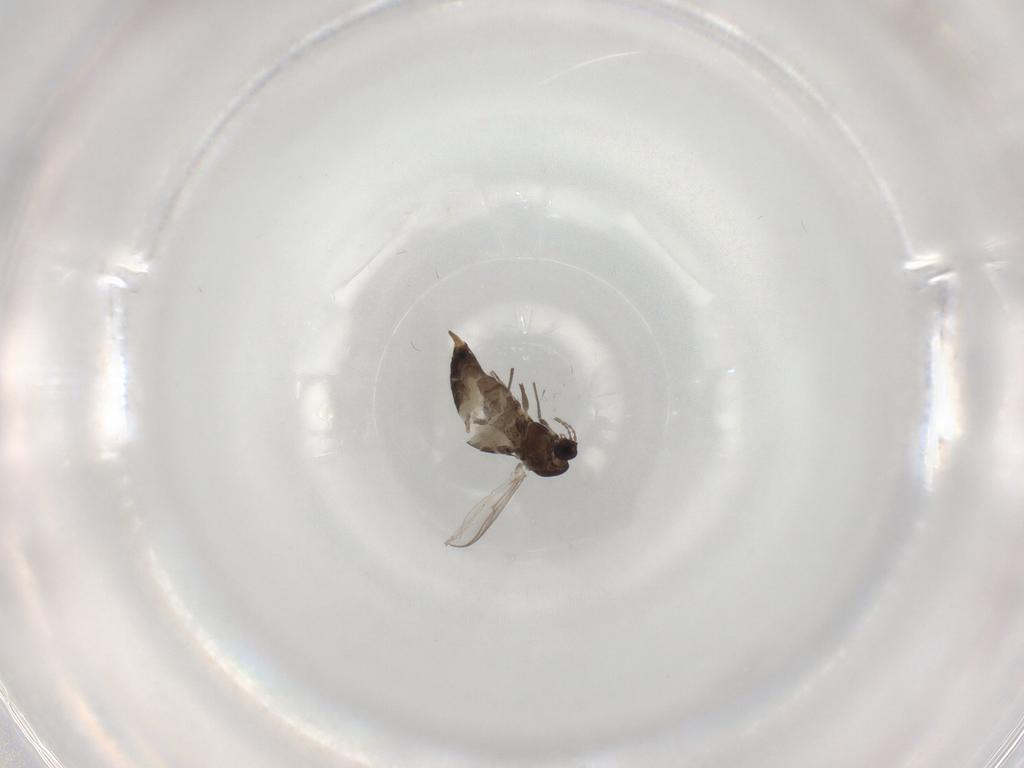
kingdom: Animalia
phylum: Arthropoda
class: Insecta
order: Diptera
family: Chironomidae
